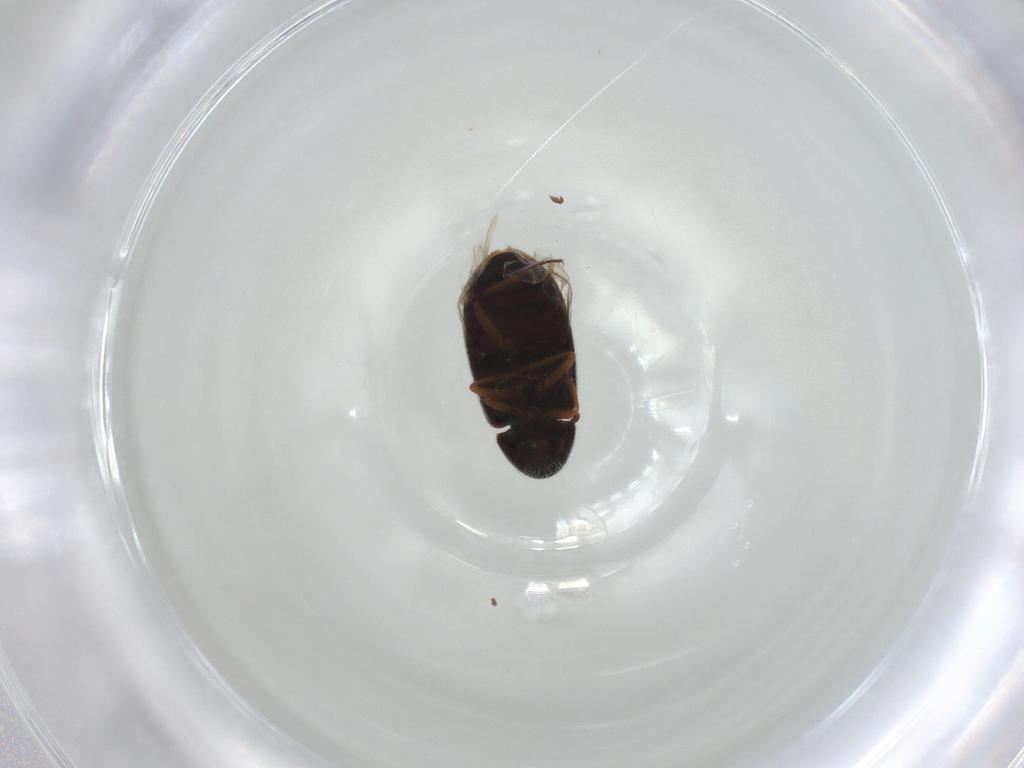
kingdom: Animalia
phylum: Arthropoda
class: Insecta
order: Coleoptera
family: Rhadalidae
